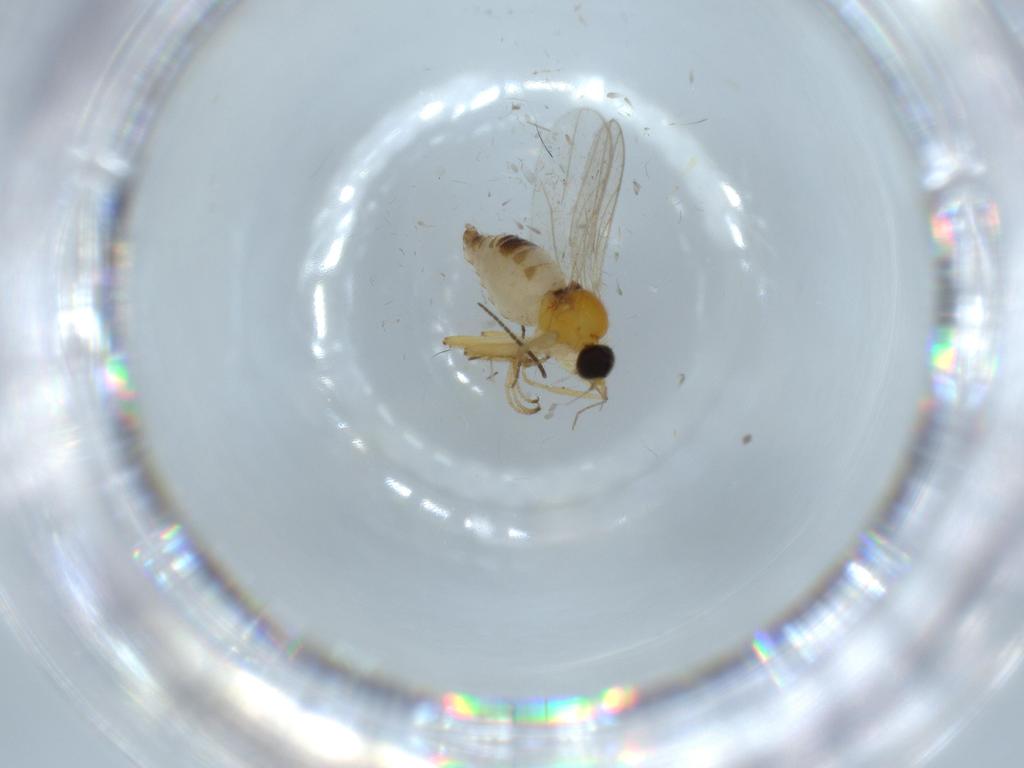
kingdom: Animalia
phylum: Arthropoda
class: Insecta
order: Diptera
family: Hybotidae
